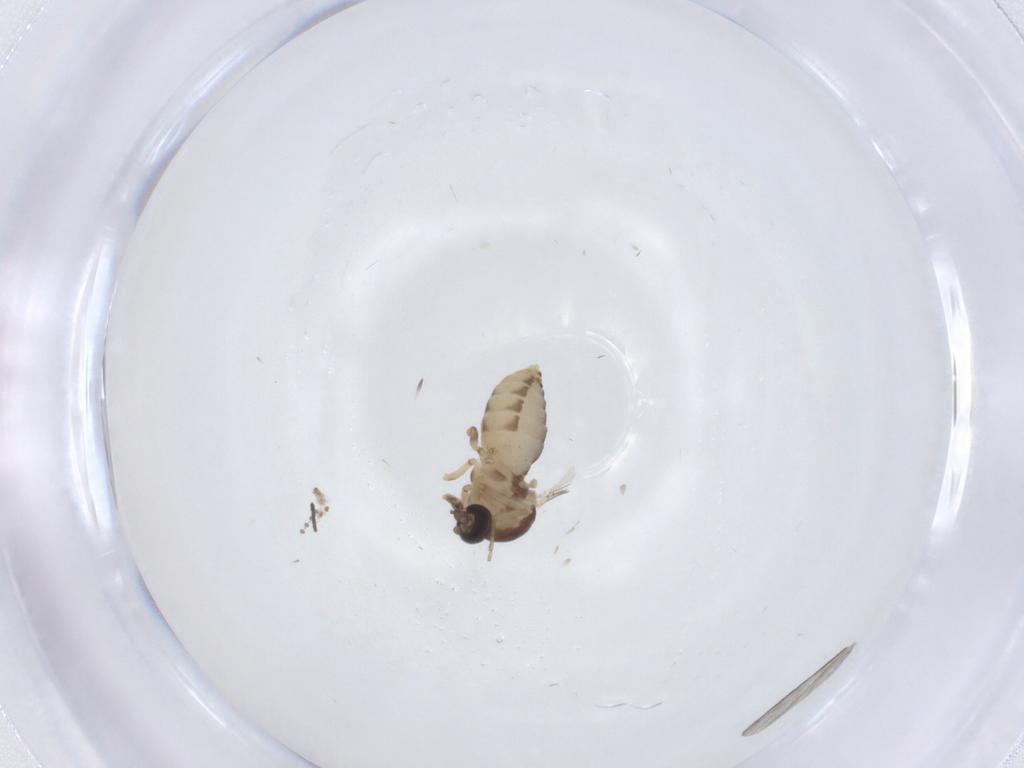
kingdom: Animalia
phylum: Arthropoda
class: Insecta
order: Diptera
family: Ceratopogonidae
